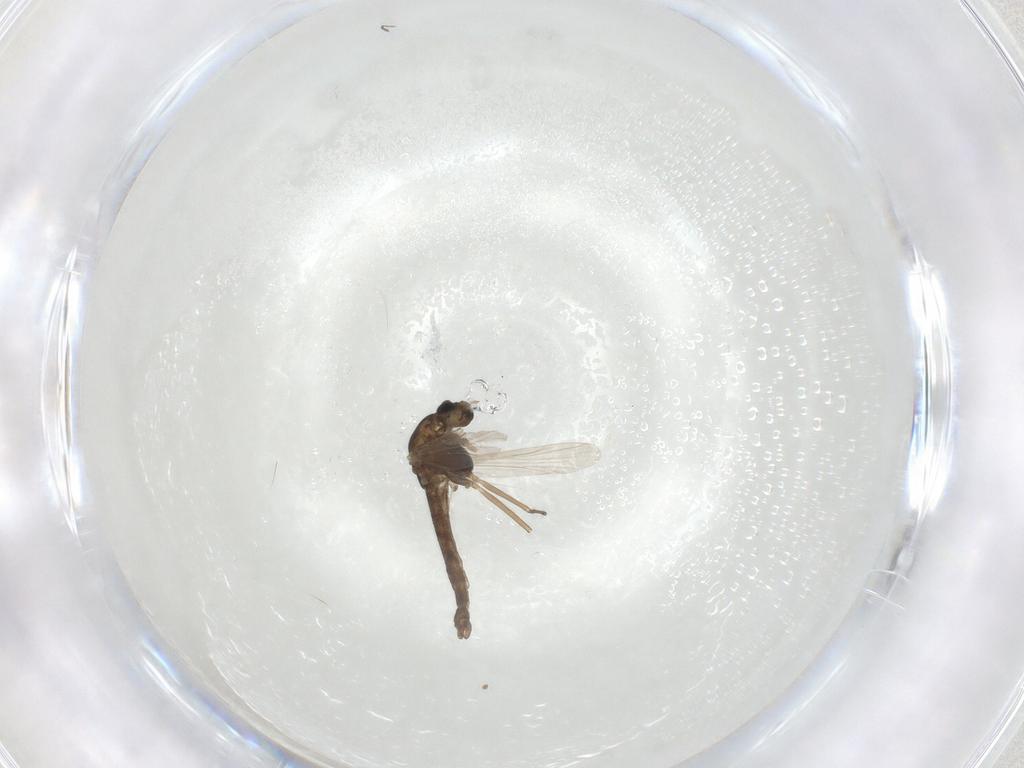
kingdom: Animalia
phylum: Arthropoda
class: Insecta
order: Diptera
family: Chironomidae
